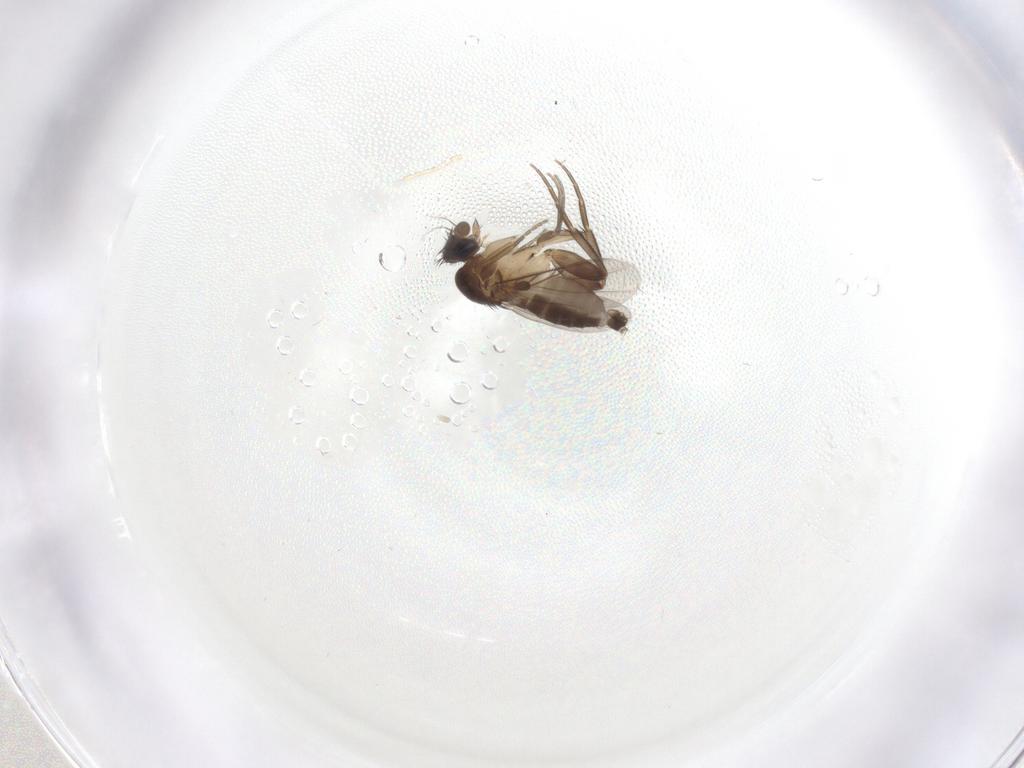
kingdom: Animalia
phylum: Arthropoda
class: Insecta
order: Diptera
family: Phoridae
